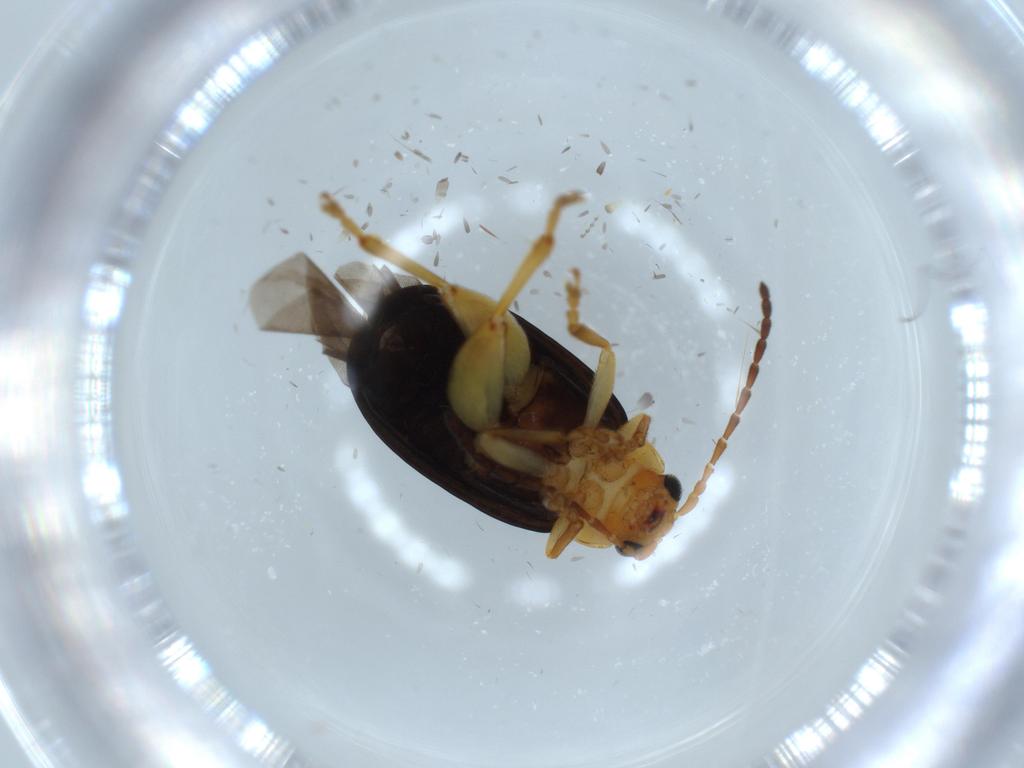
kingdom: Animalia
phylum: Arthropoda
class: Insecta
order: Coleoptera
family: Chrysomelidae
